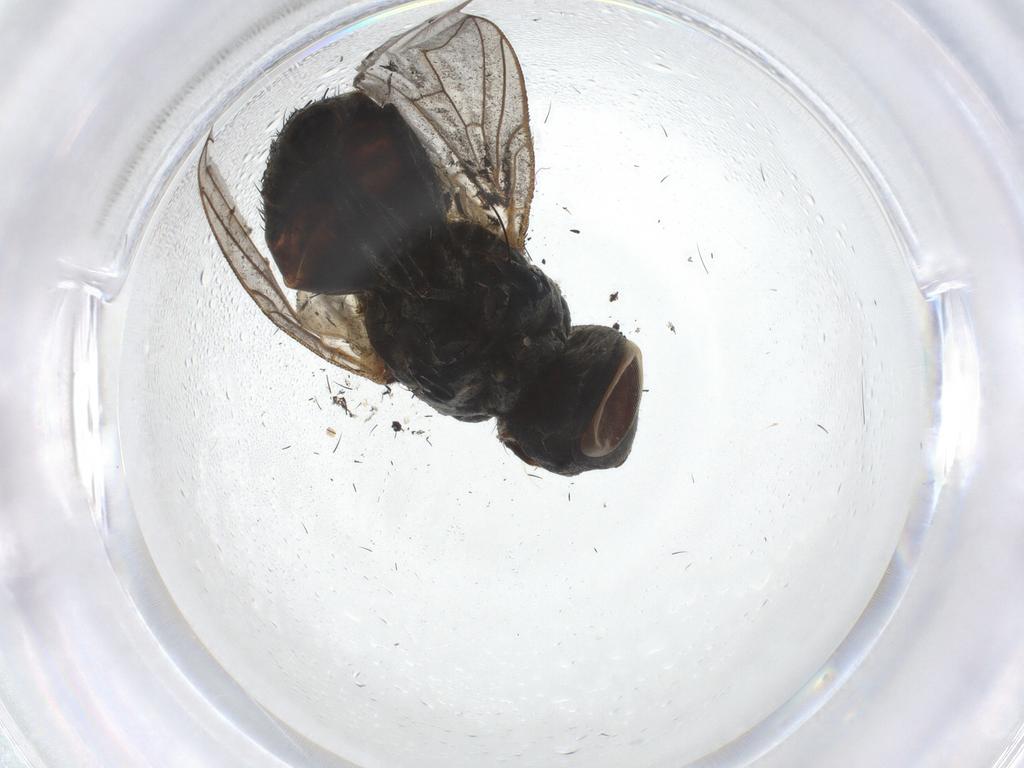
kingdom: Animalia
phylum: Arthropoda
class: Insecta
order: Diptera
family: Sarcophagidae
